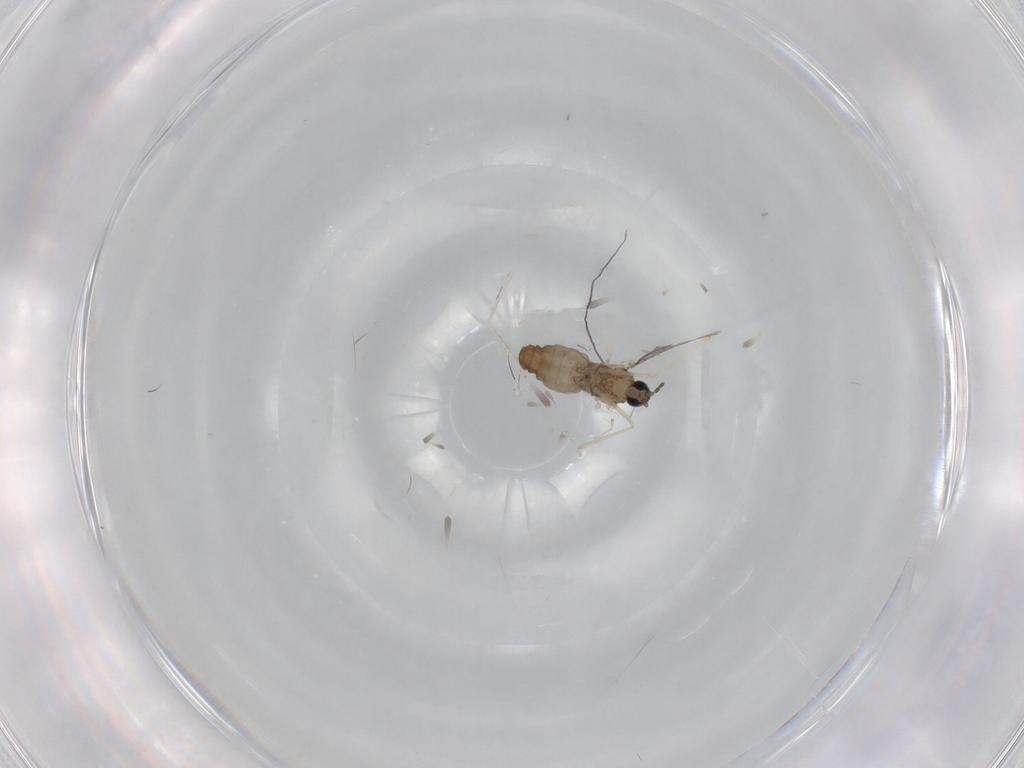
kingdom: Animalia
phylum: Arthropoda
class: Insecta
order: Diptera
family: Cecidomyiidae
